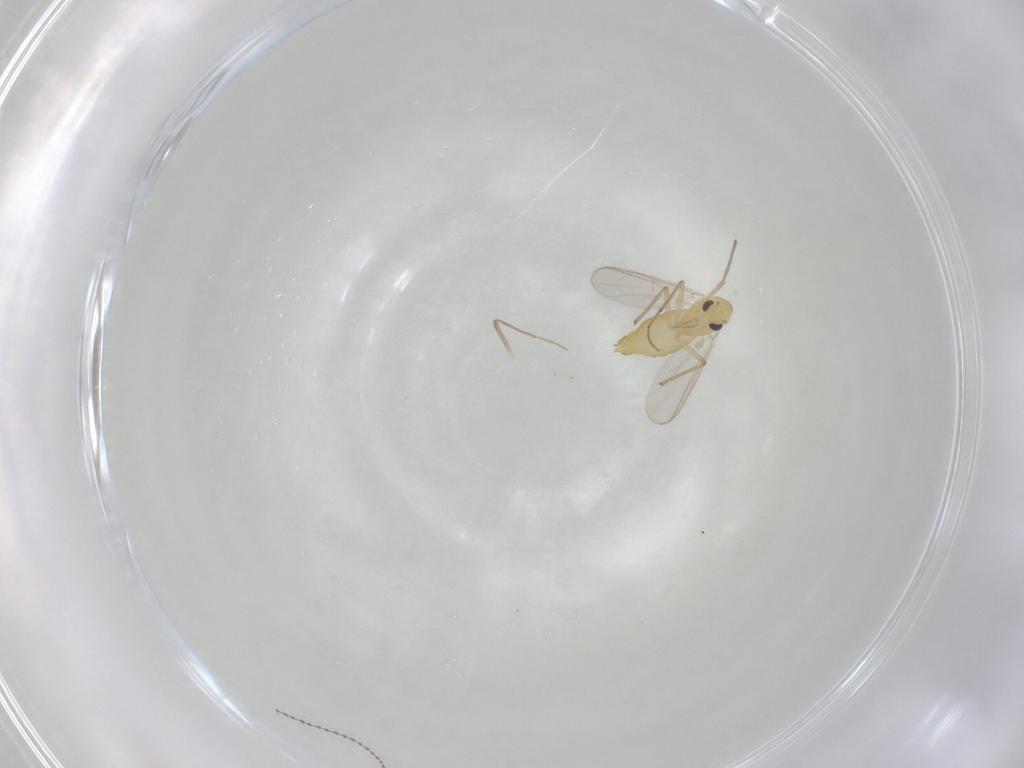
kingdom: Animalia
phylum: Arthropoda
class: Insecta
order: Diptera
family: Chironomidae
